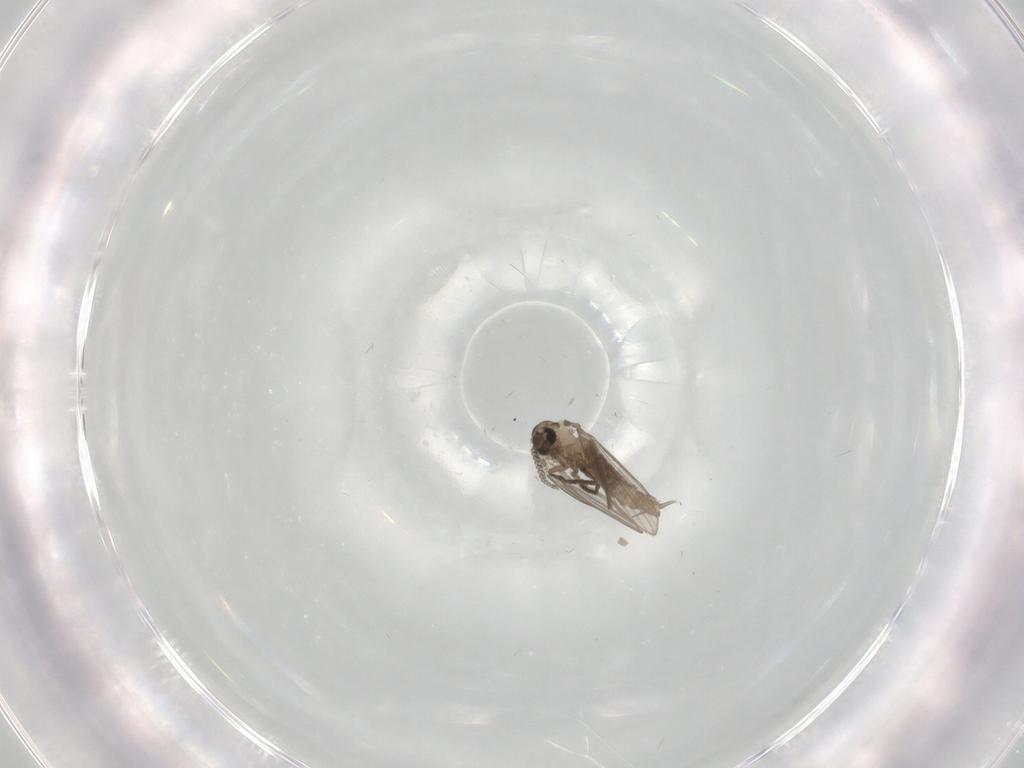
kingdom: Animalia
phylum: Arthropoda
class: Insecta
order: Diptera
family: Psychodidae
